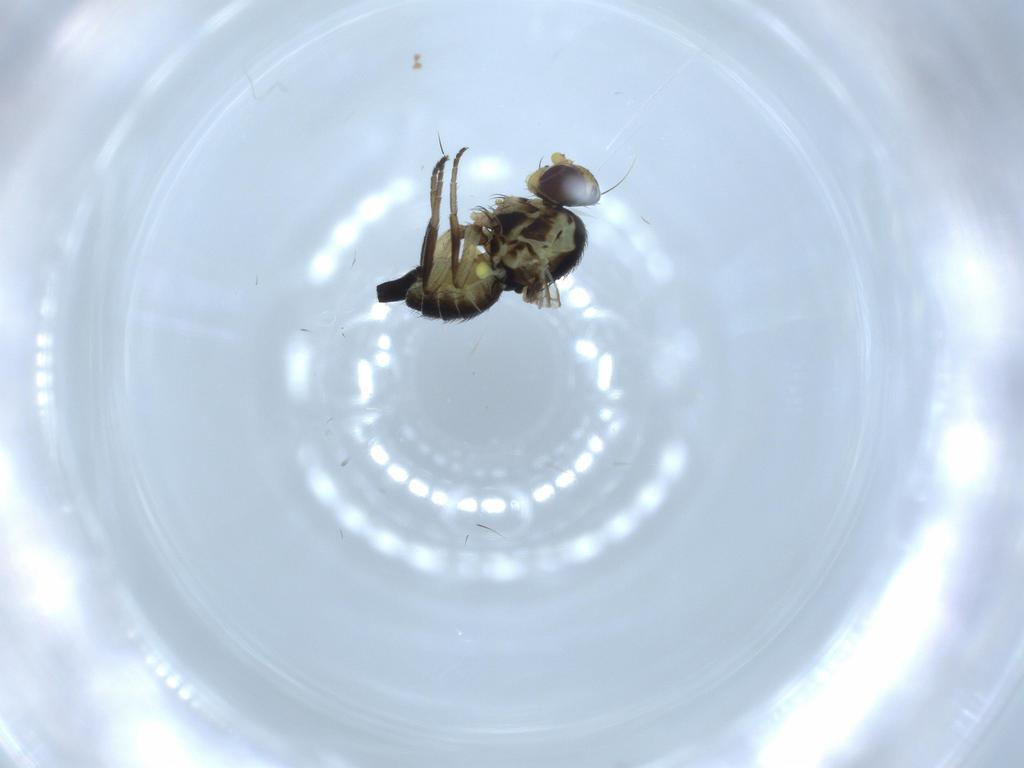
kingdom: Animalia
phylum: Arthropoda
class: Insecta
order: Diptera
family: Agromyzidae
